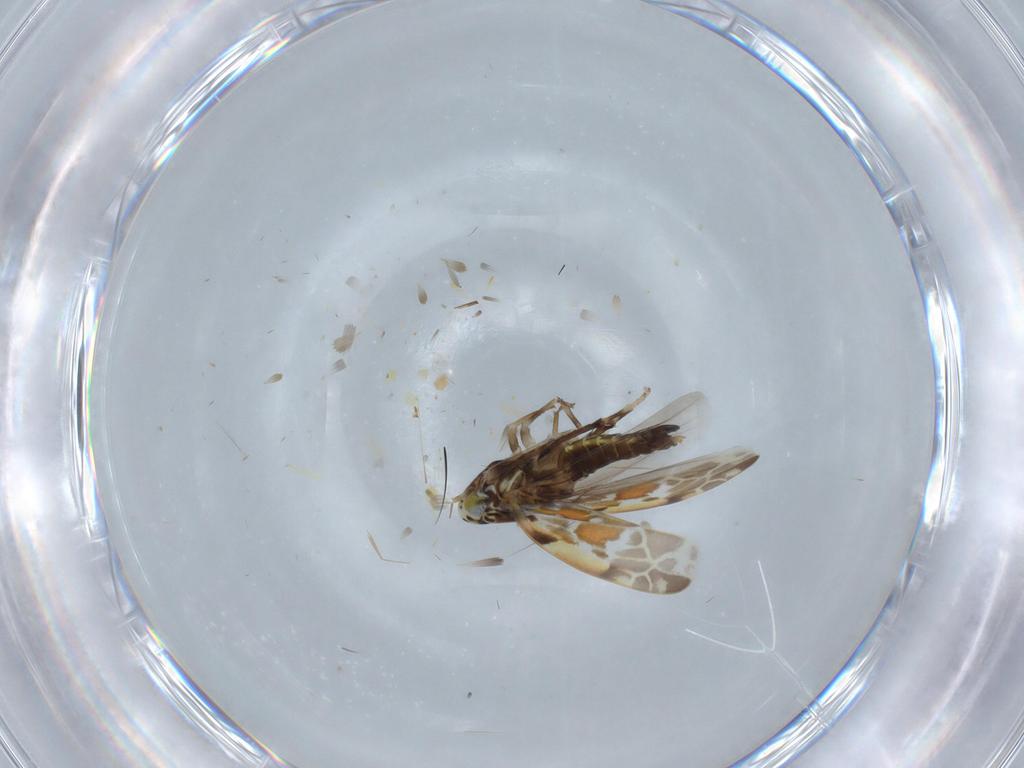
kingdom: Animalia
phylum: Arthropoda
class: Insecta
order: Hemiptera
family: Cicadellidae
